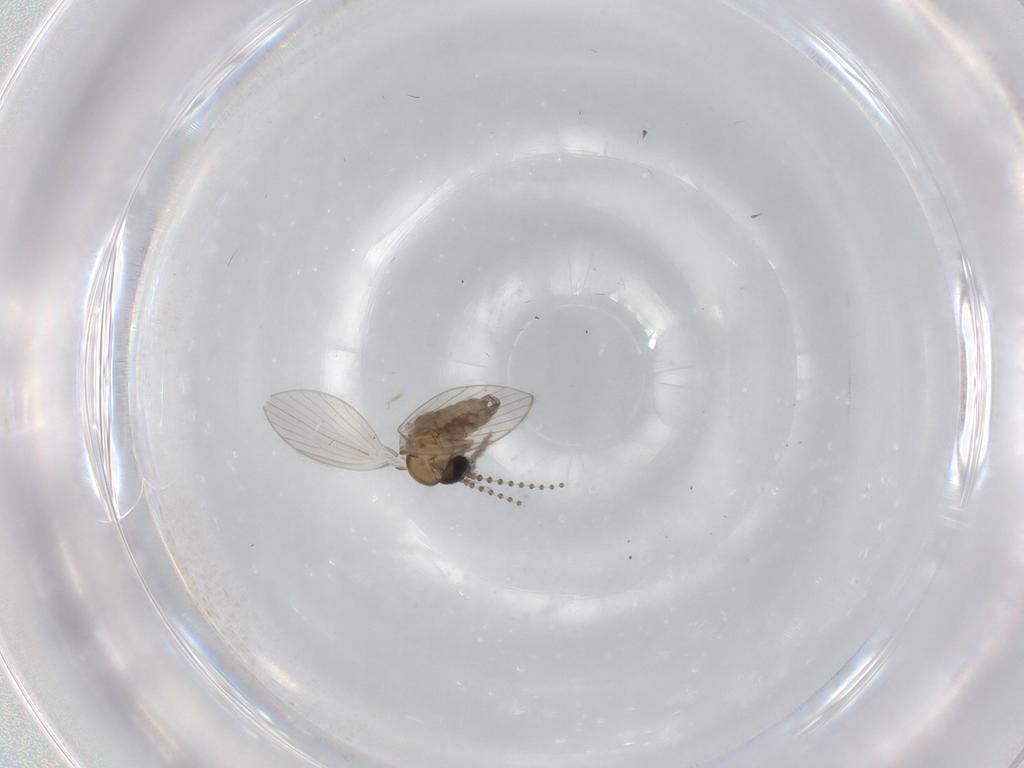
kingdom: Animalia
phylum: Arthropoda
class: Insecta
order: Diptera
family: Psychodidae
